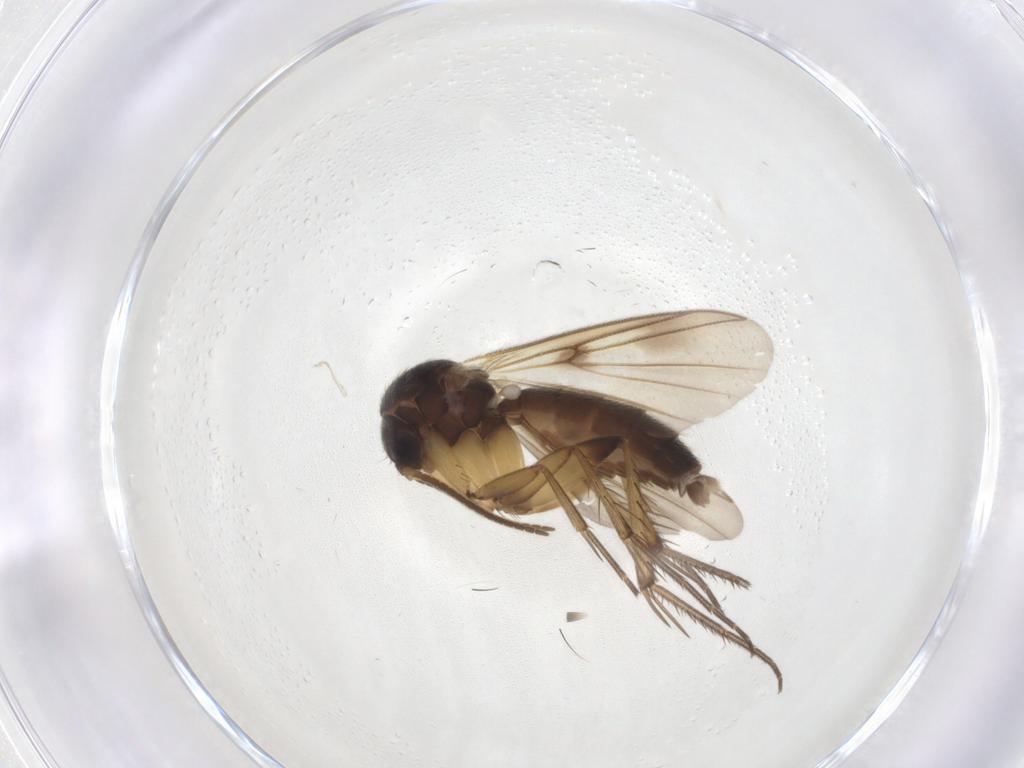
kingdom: Animalia
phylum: Arthropoda
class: Insecta
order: Diptera
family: Mycetophilidae
